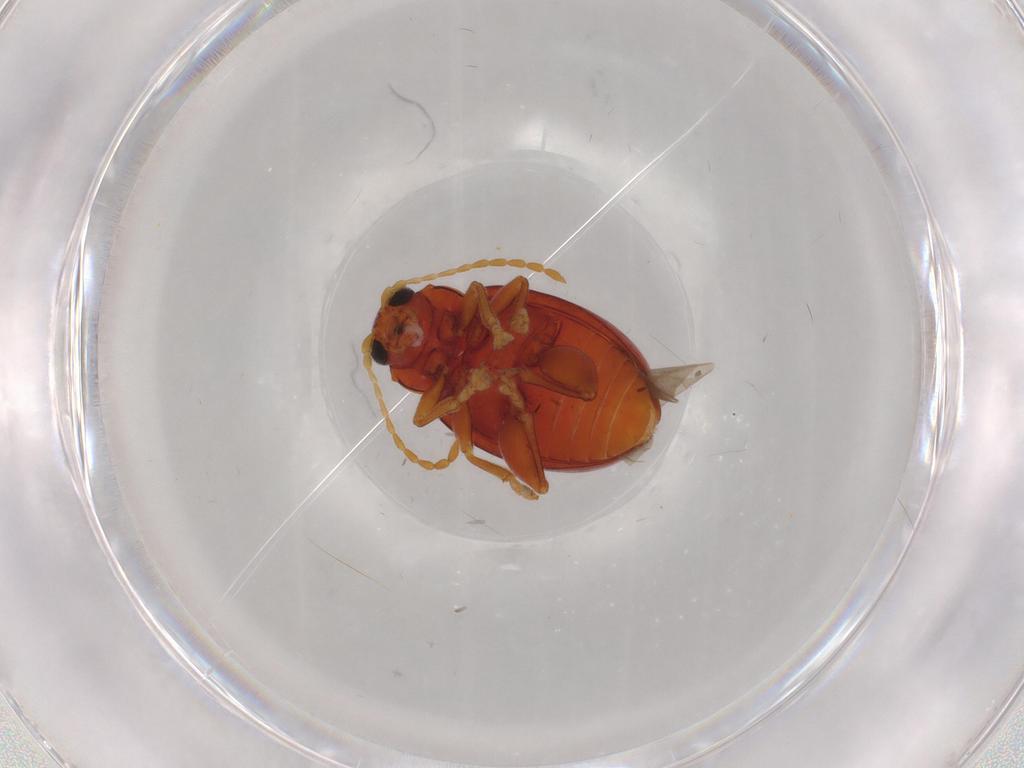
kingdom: Animalia
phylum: Arthropoda
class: Insecta
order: Coleoptera
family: Chrysomelidae
